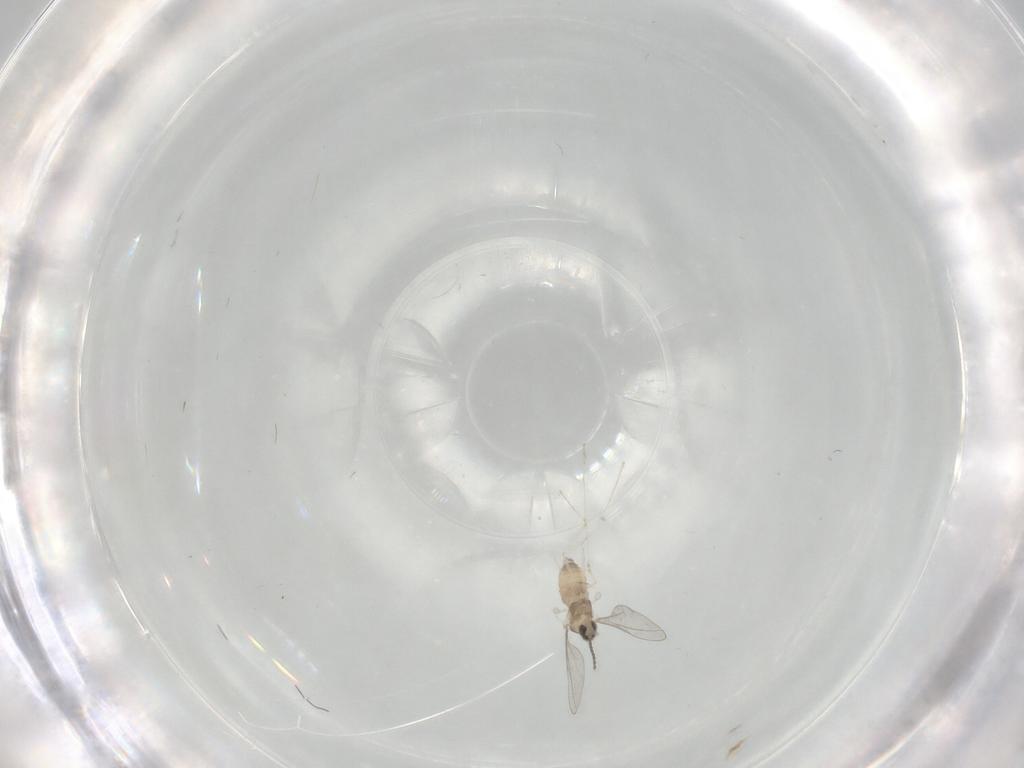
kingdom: Animalia
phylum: Arthropoda
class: Insecta
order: Diptera
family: Cecidomyiidae
